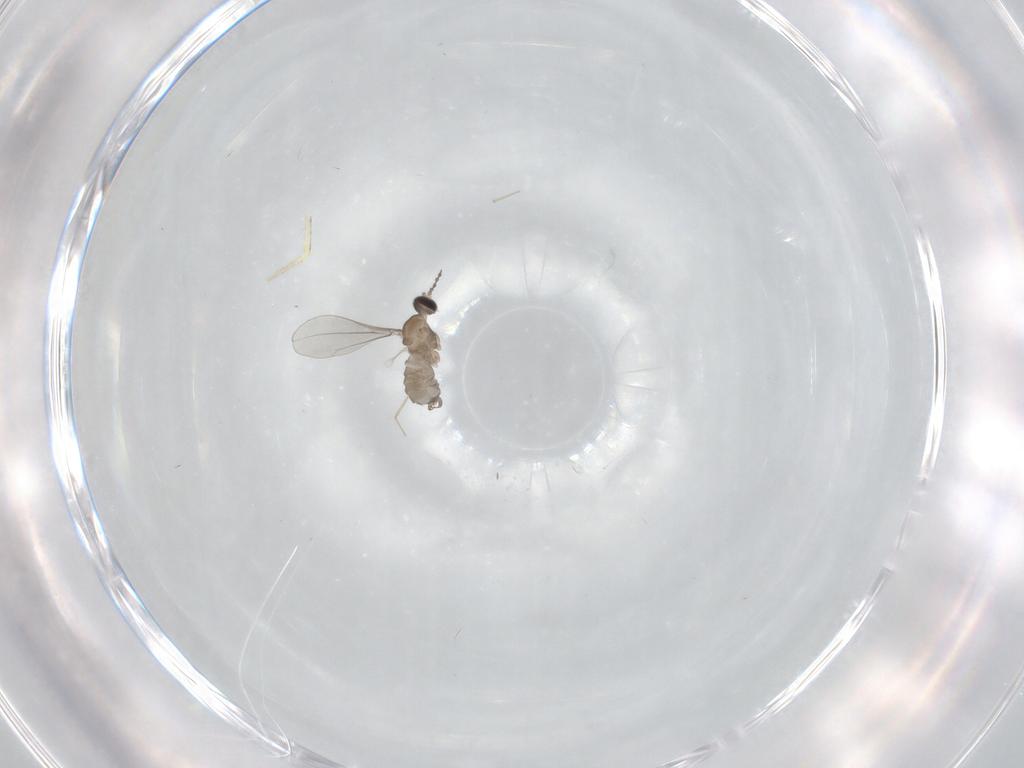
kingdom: Animalia
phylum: Arthropoda
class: Insecta
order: Diptera
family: Cecidomyiidae
